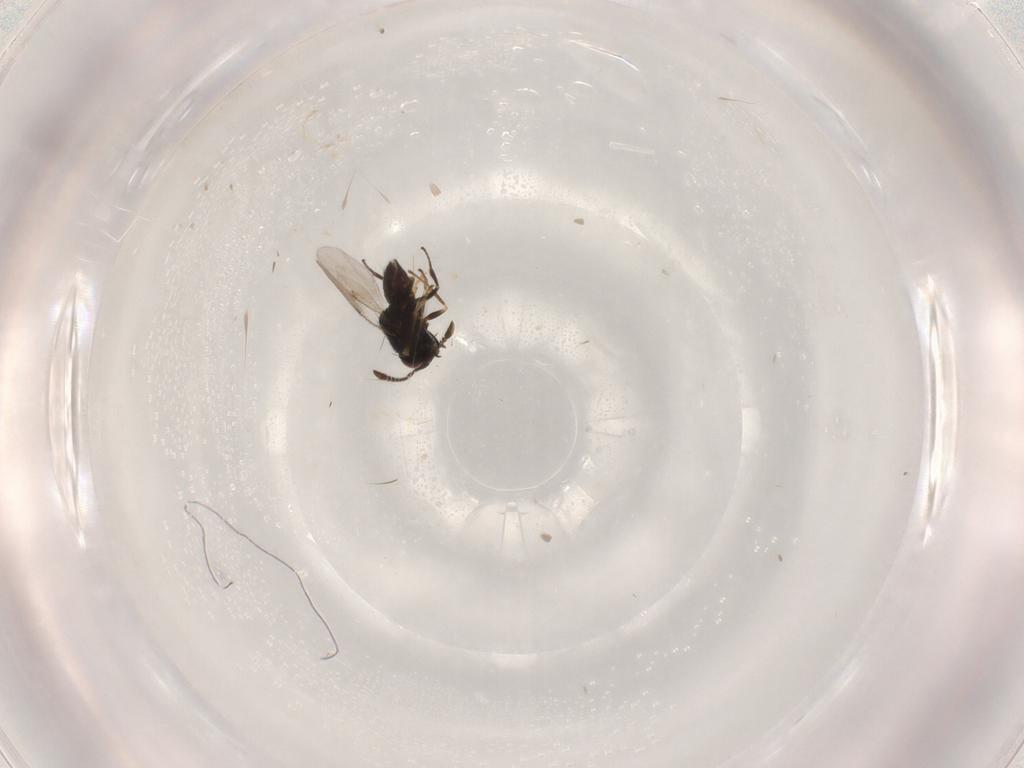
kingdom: Animalia
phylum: Arthropoda
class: Insecta
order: Hymenoptera
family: Encyrtidae
